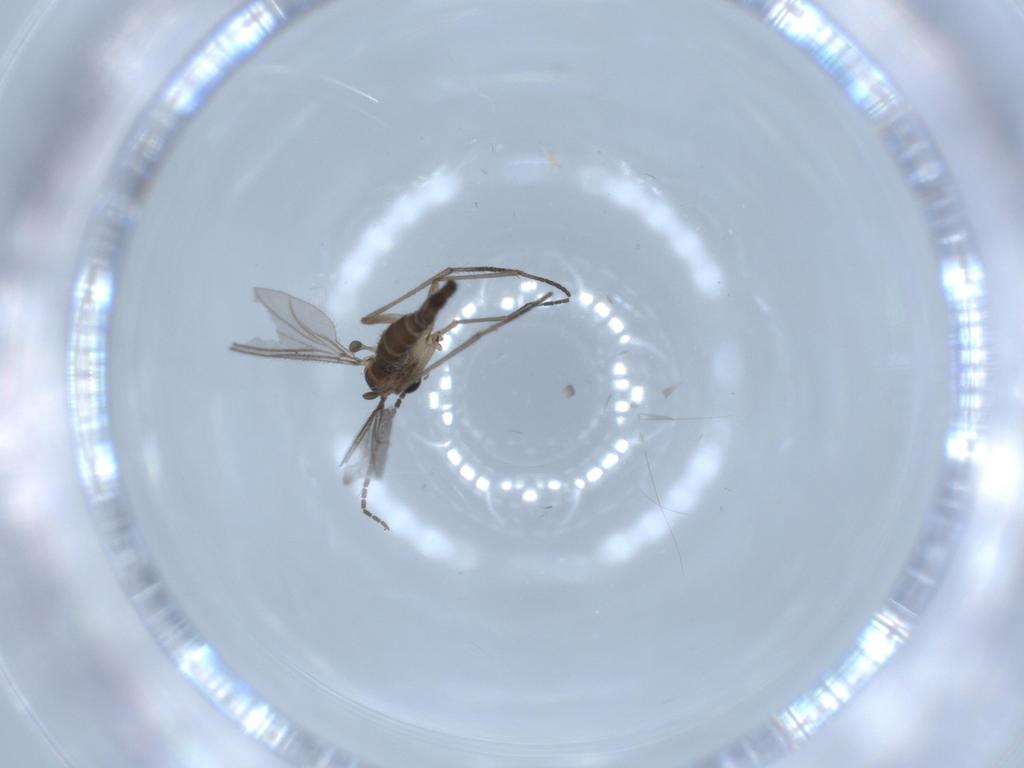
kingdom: Animalia
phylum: Arthropoda
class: Insecta
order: Diptera
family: Sciaridae
